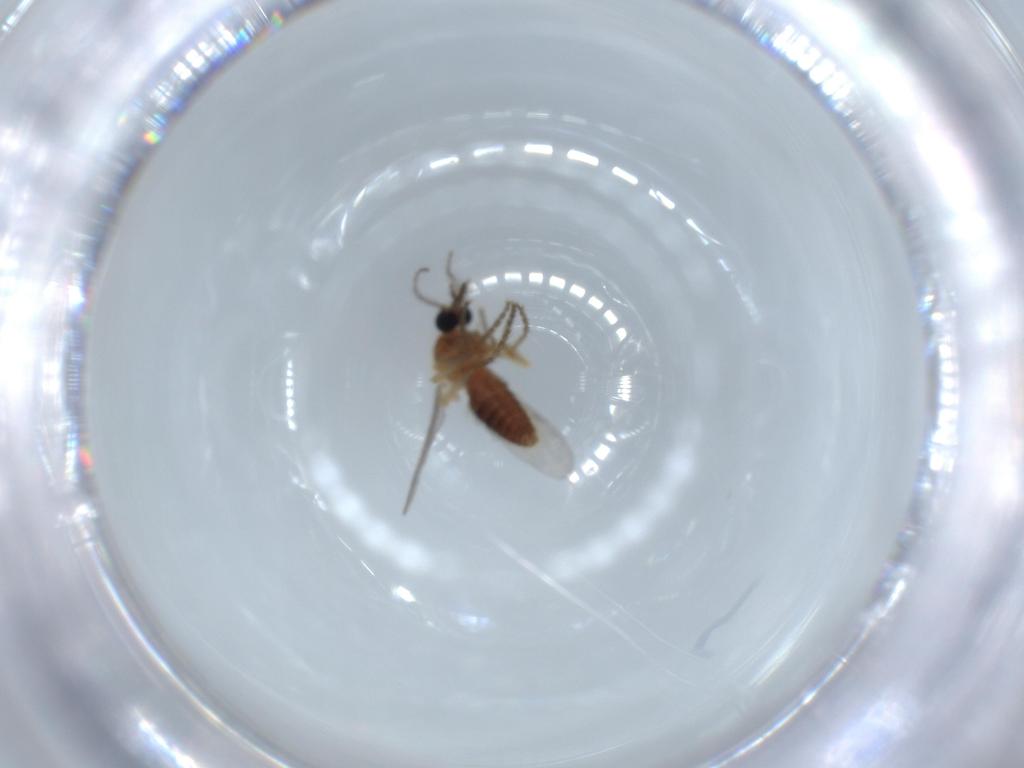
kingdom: Animalia
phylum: Arthropoda
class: Insecta
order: Diptera
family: Ceratopogonidae
